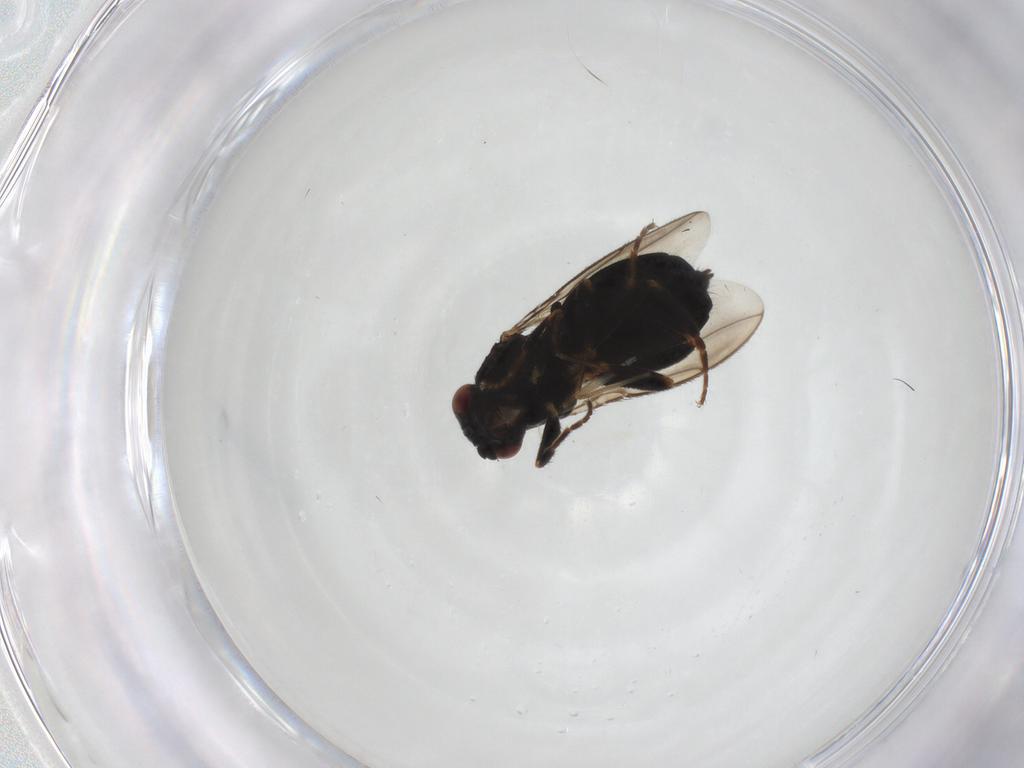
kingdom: Animalia
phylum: Arthropoda
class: Insecta
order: Diptera
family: Sphaeroceridae
